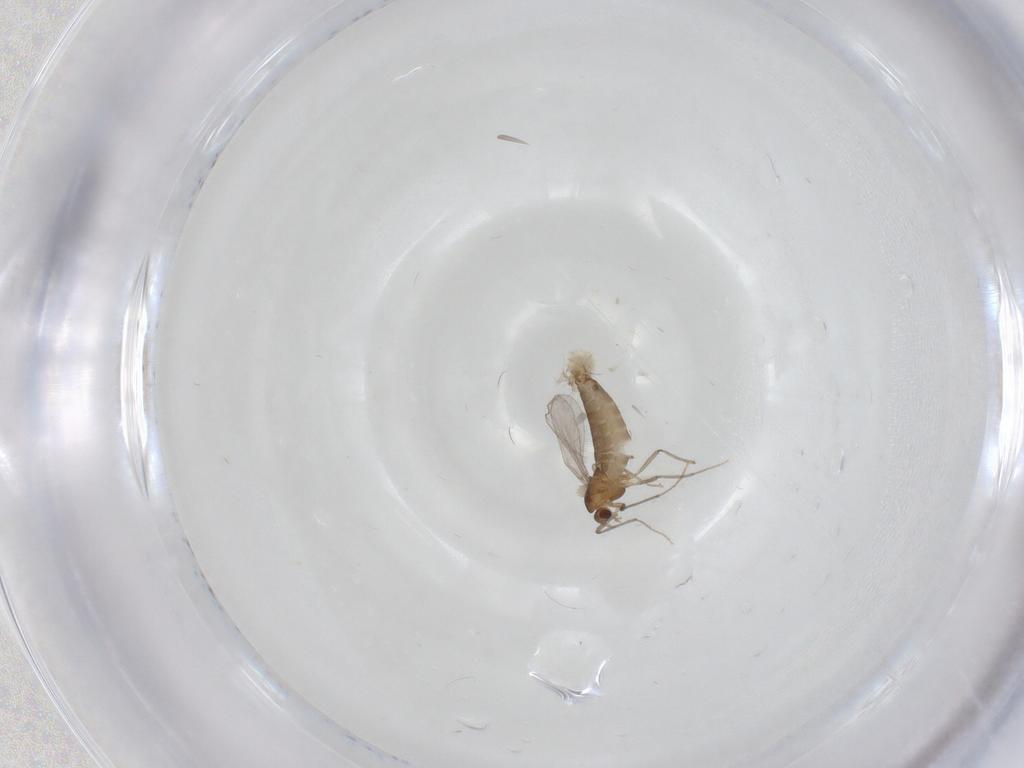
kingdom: Animalia
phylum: Arthropoda
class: Insecta
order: Diptera
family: Chironomidae
